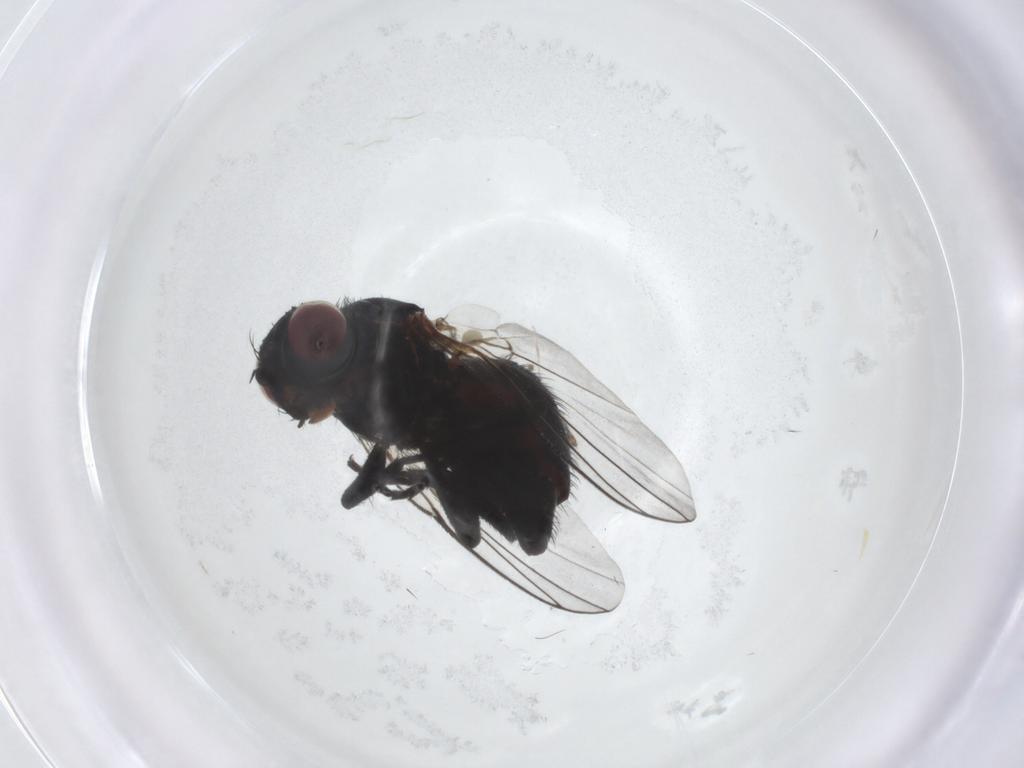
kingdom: Animalia
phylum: Arthropoda
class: Insecta
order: Diptera
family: Agromyzidae
